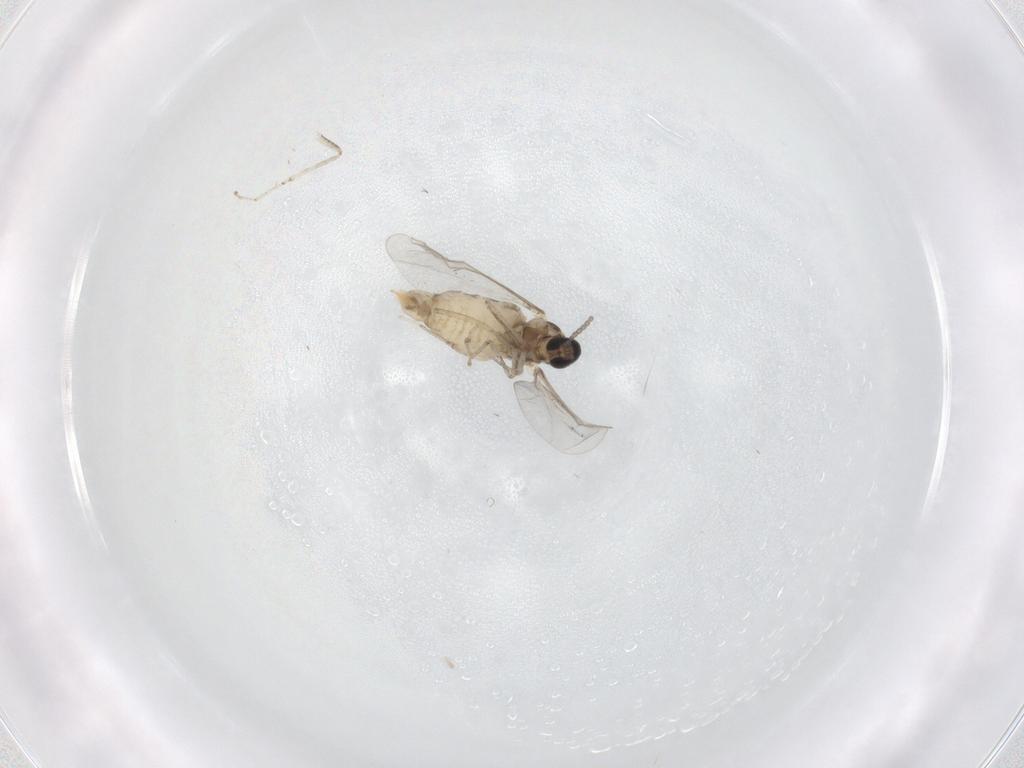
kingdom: Animalia
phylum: Arthropoda
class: Insecta
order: Diptera
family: Cecidomyiidae
